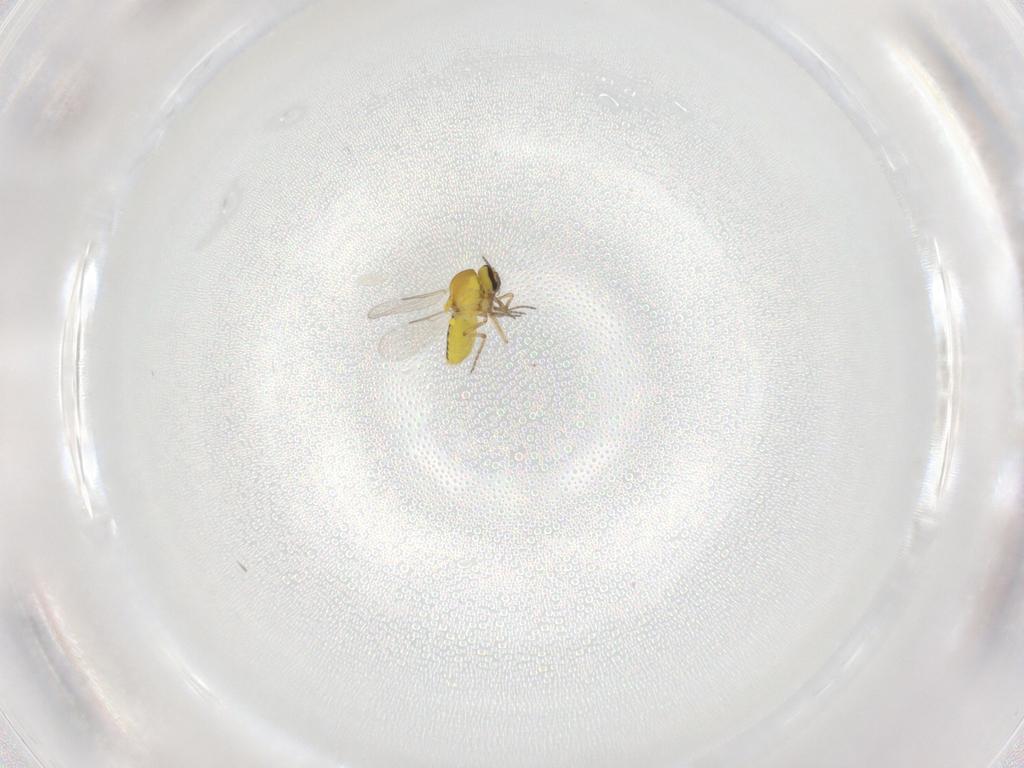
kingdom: Animalia
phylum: Arthropoda
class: Insecta
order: Diptera
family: Ceratopogonidae
